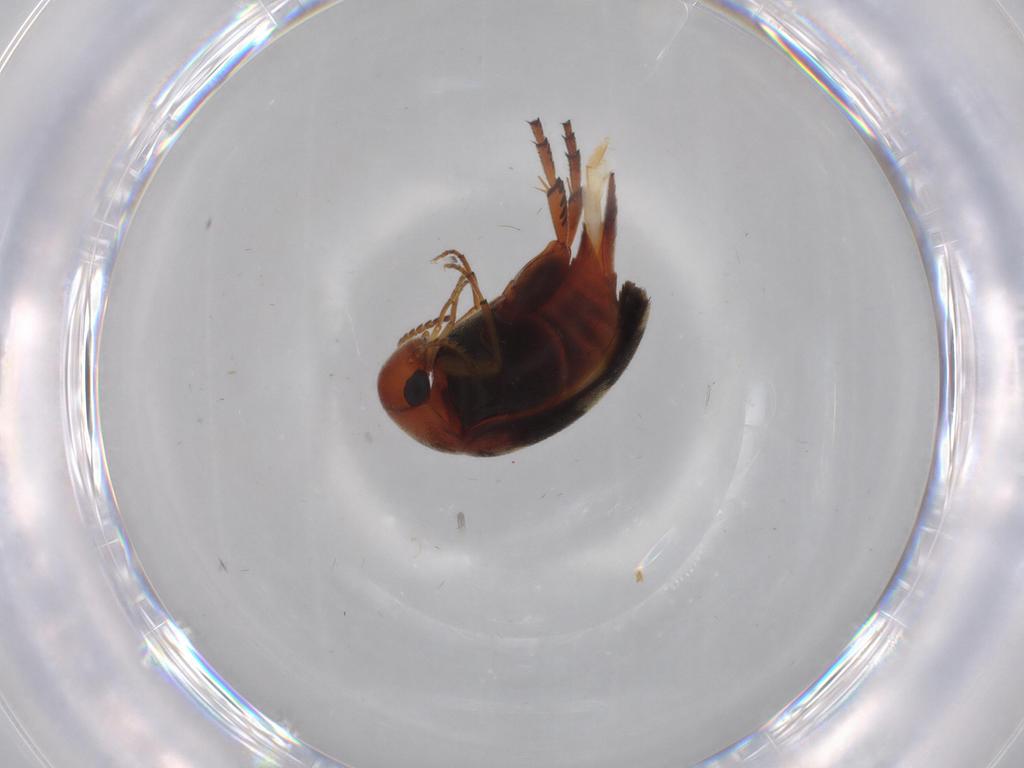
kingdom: Animalia
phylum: Arthropoda
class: Insecta
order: Coleoptera
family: Mordellidae
